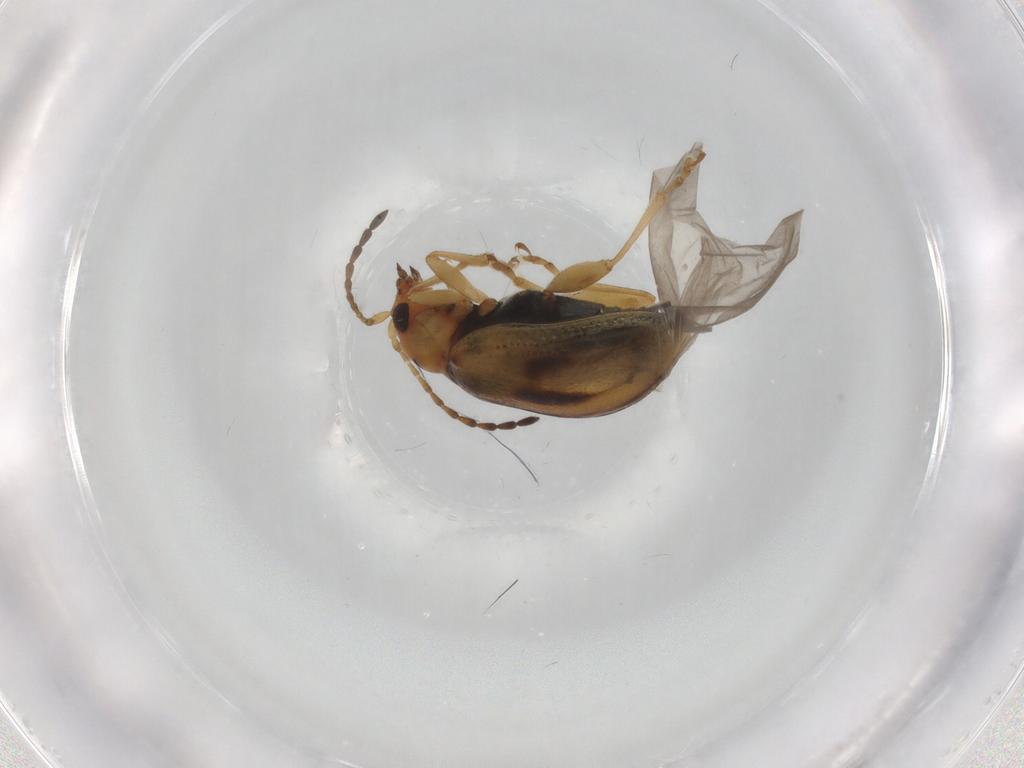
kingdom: Animalia
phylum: Arthropoda
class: Insecta
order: Coleoptera
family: Chrysomelidae
